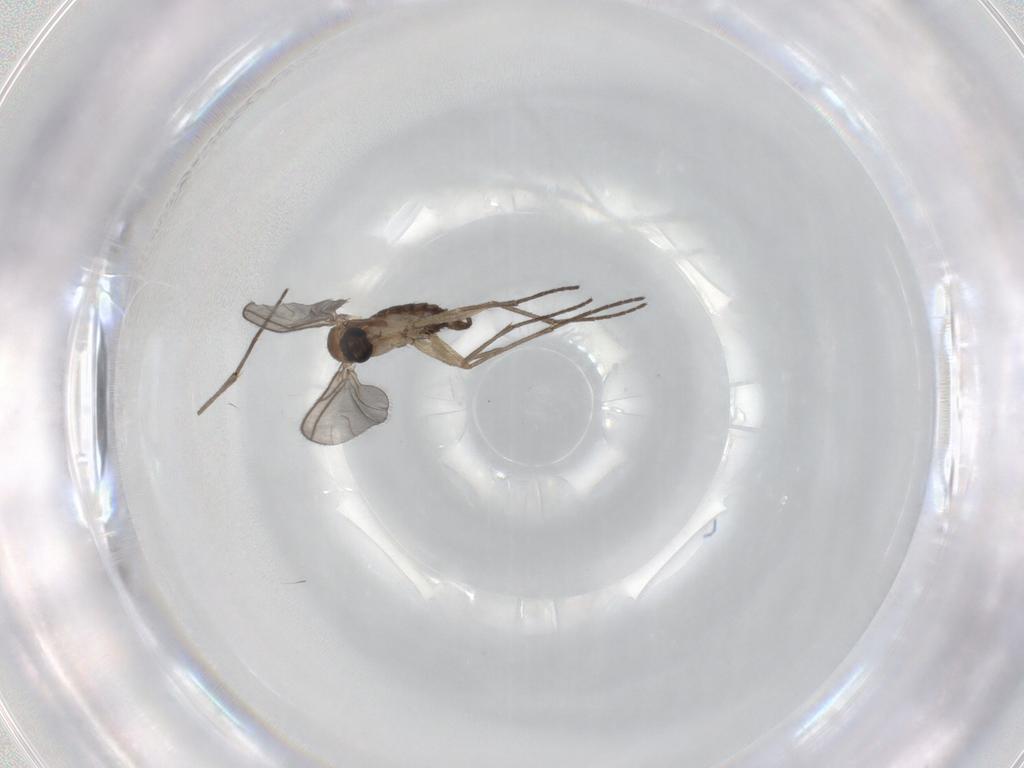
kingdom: Animalia
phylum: Arthropoda
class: Insecta
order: Diptera
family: Sciaridae
